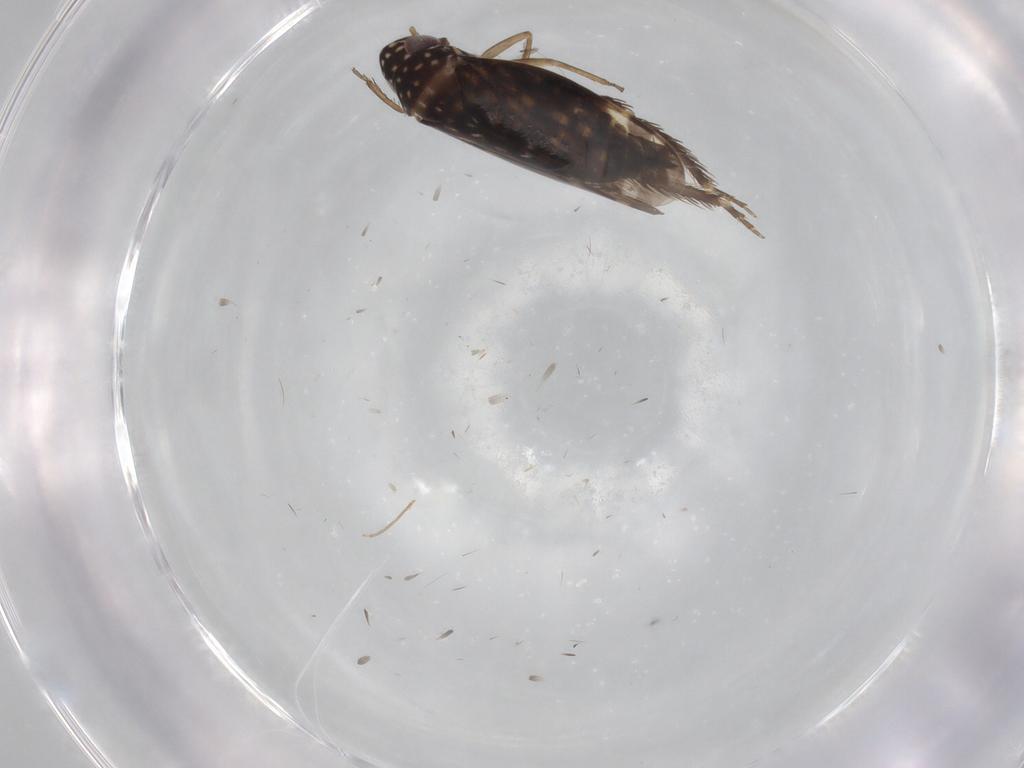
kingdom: Animalia
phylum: Arthropoda
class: Insecta
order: Hemiptera
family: Cicadellidae
